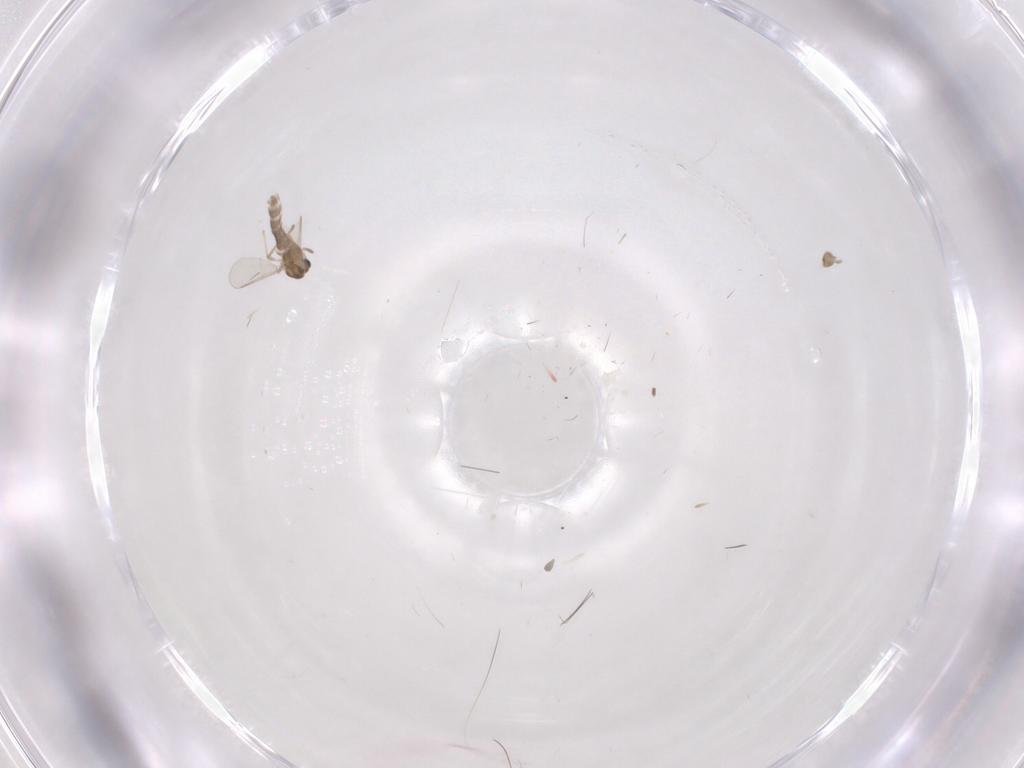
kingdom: Animalia
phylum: Arthropoda
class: Insecta
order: Diptera
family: Chironomidae
